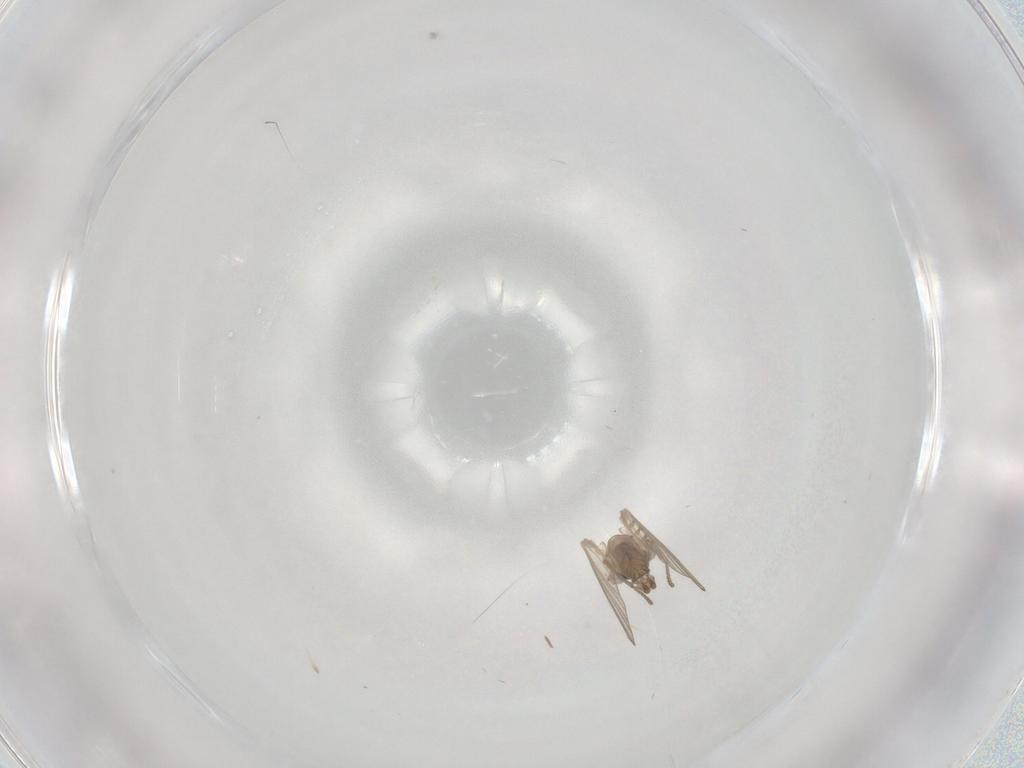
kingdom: Animalia
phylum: Arthropoda
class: Insecta
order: Diptera
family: Psychodidae
